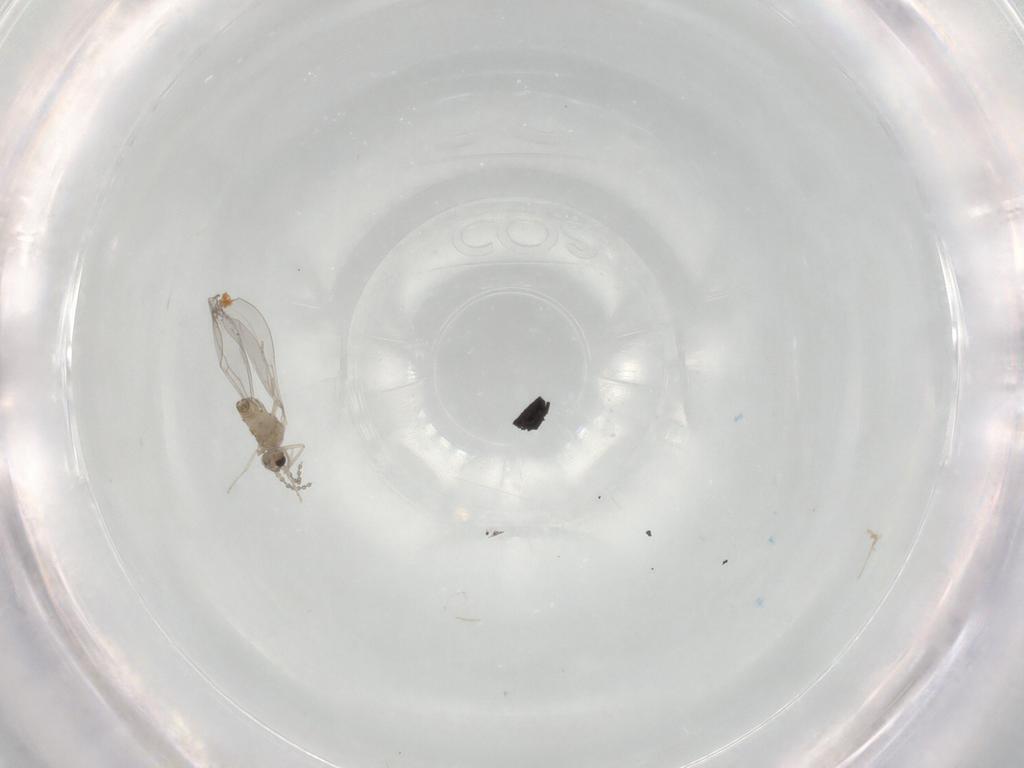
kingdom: Animalia
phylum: Arthropoda
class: Insecta
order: Diptera
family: Cecidomyiidae
